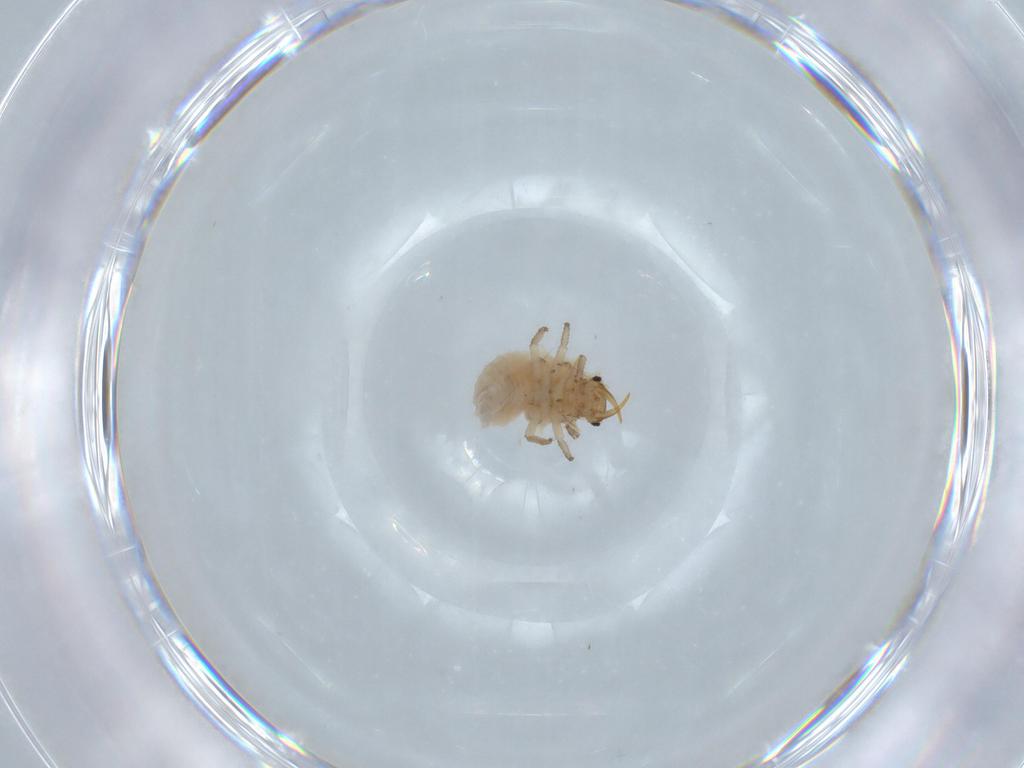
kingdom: Animalia
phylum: Arthropoda
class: Insecta
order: Neuroptera
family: Chrysopidae
